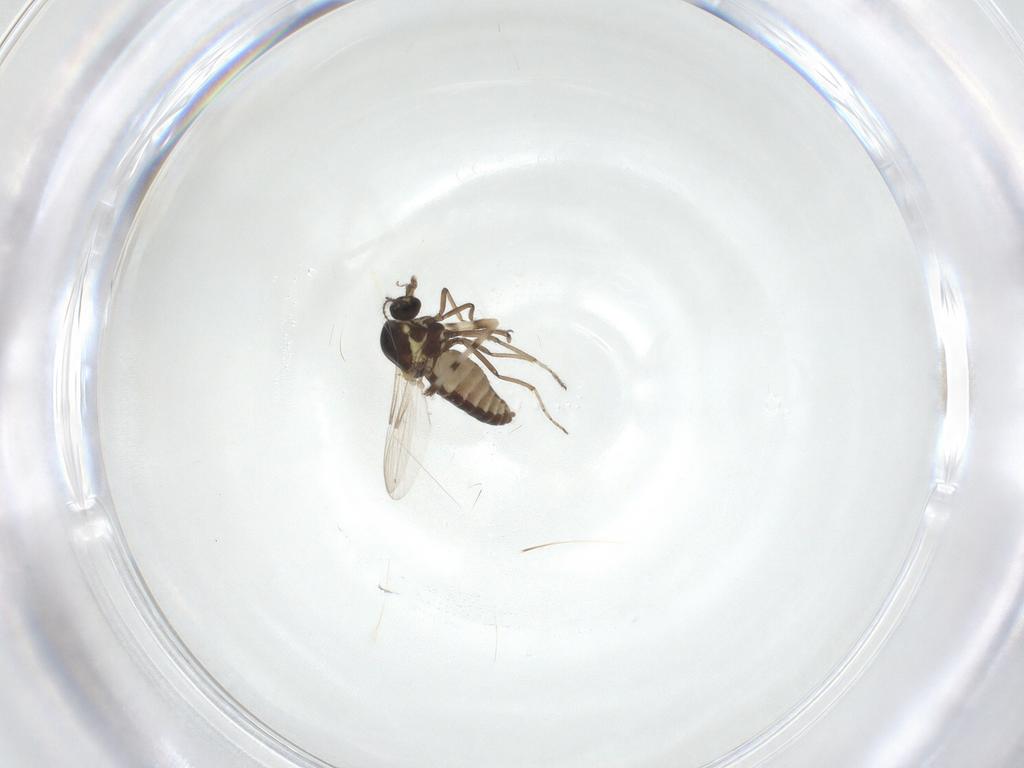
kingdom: Animalia
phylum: Arthropoda
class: Insecta
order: Diptera
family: Ceratopogonidae
